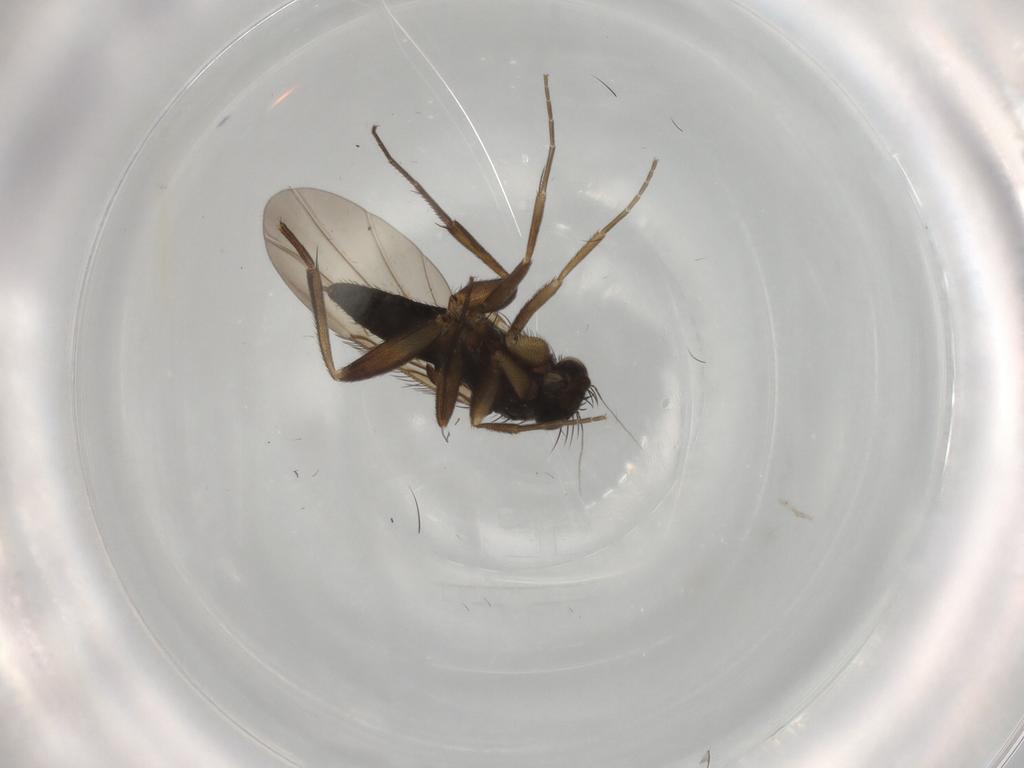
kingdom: Animalia
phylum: Arthropoda
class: Insecta
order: Diptera
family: Phoridae
